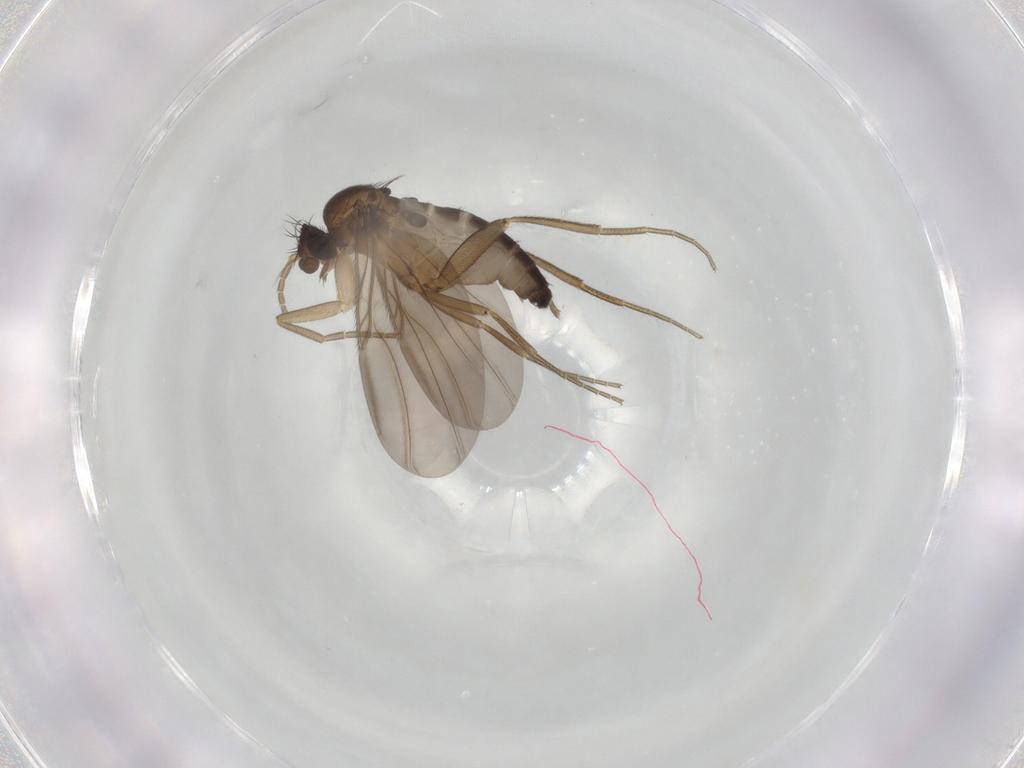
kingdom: Animalia
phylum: Arthropoda
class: Insecta
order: Diptera
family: Phoridae
